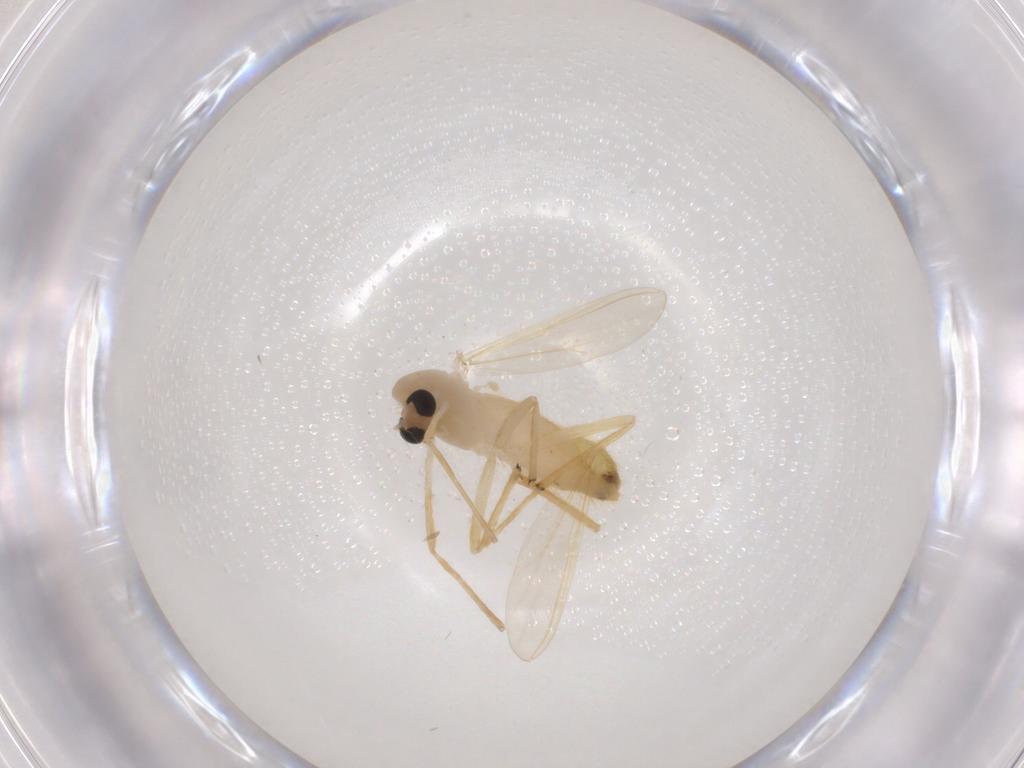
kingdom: Animalia
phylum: Arthropoda
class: Insecta
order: Diptera
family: Chironomidae
